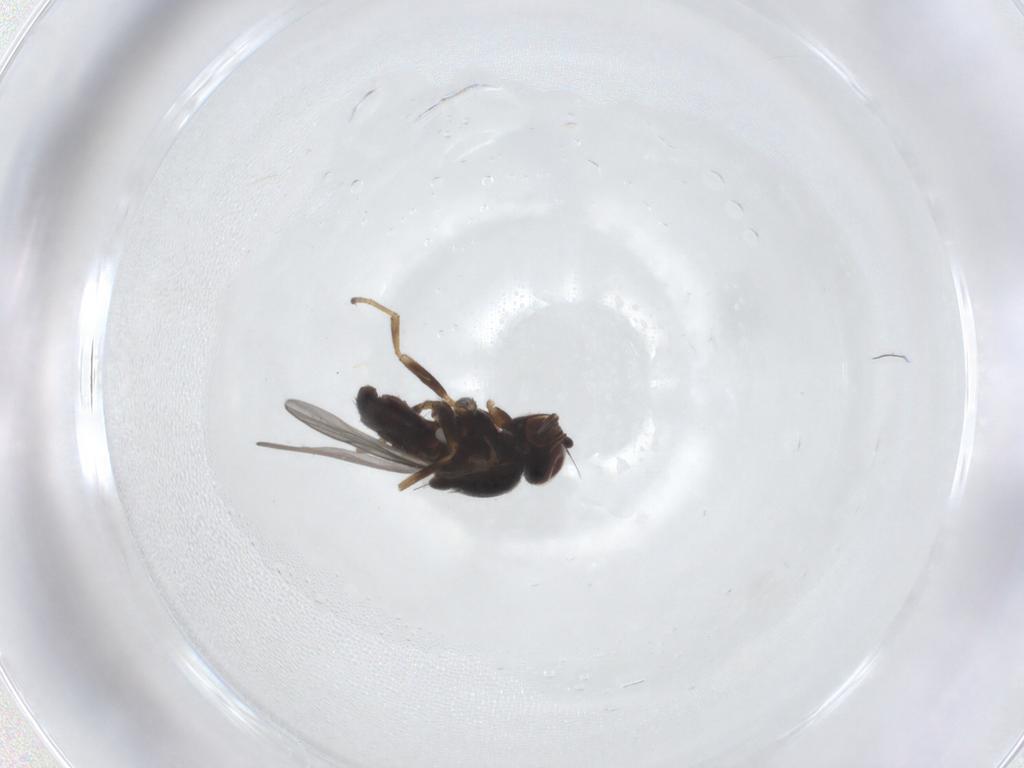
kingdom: Animalia
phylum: Arthropoda
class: Insecta
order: Diptera
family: Chloropidae
